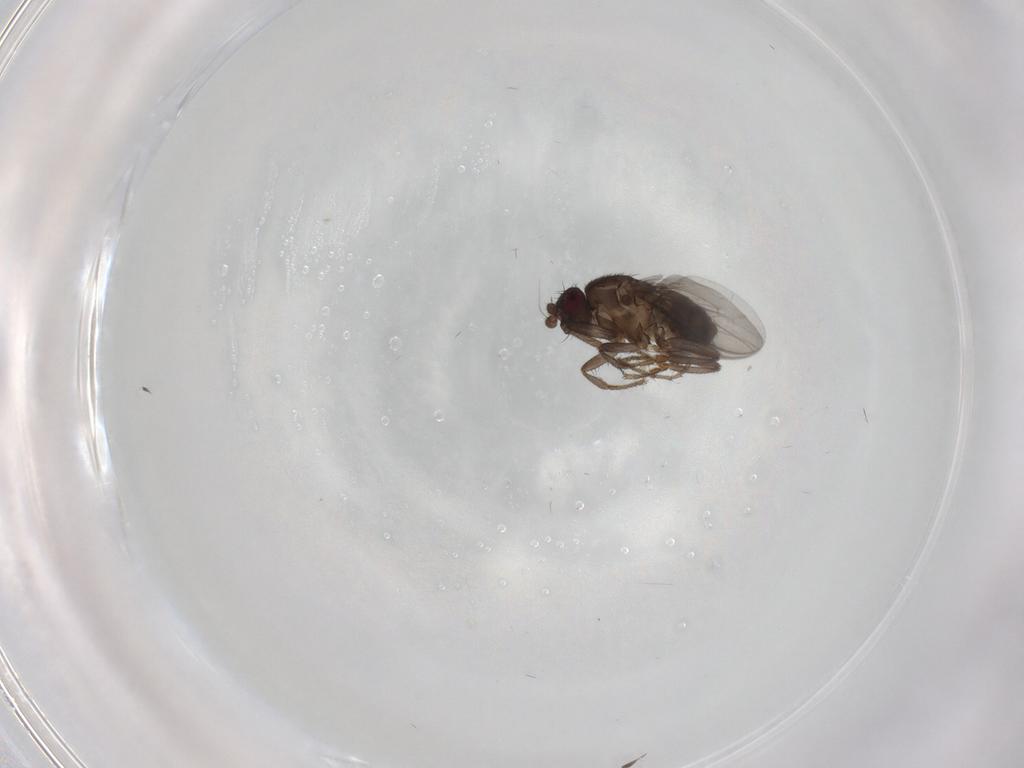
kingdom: Animalia
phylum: Arthropoda
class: Insecta
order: Diptera
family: Chironomidae
